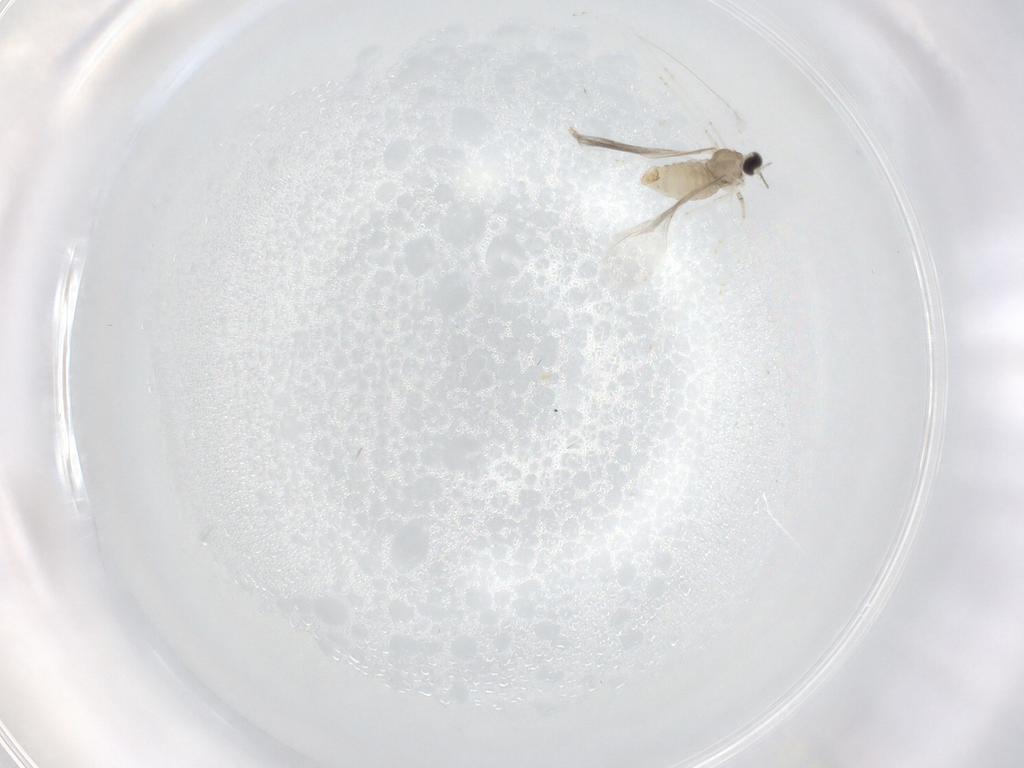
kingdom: Animalia
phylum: Arthropoda
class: Insecta
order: Diptera
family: Cecidomyiidae
